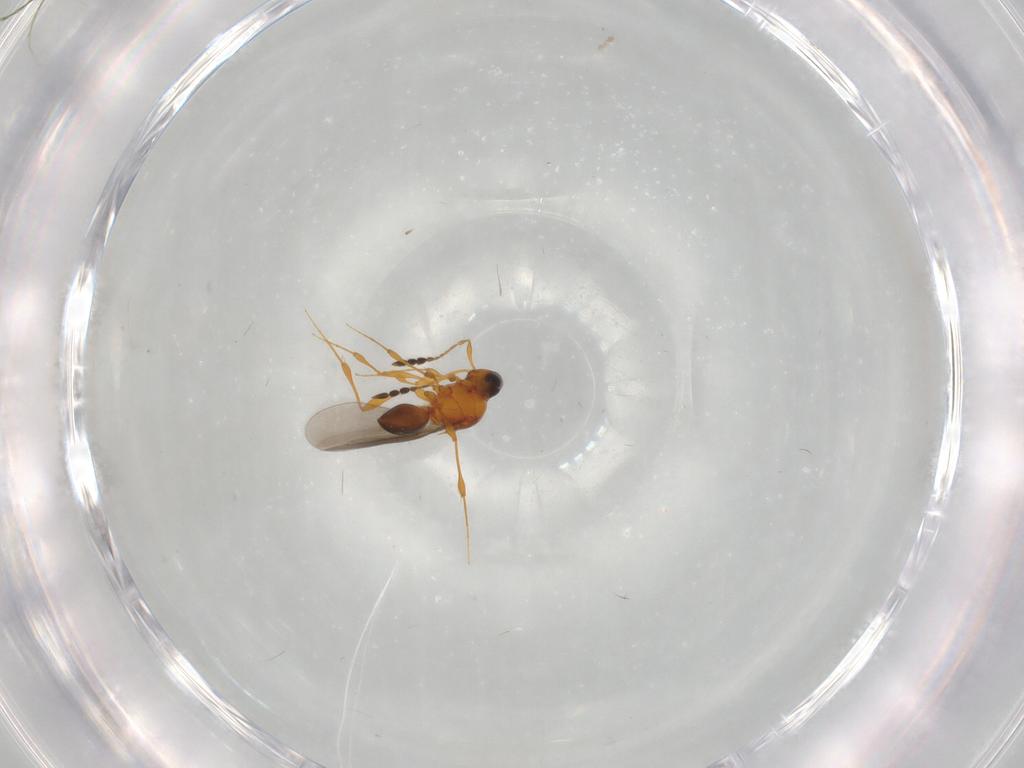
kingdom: Animalia
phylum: Arthropoda
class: Insecta
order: Hymenoptera
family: Platygastridae
